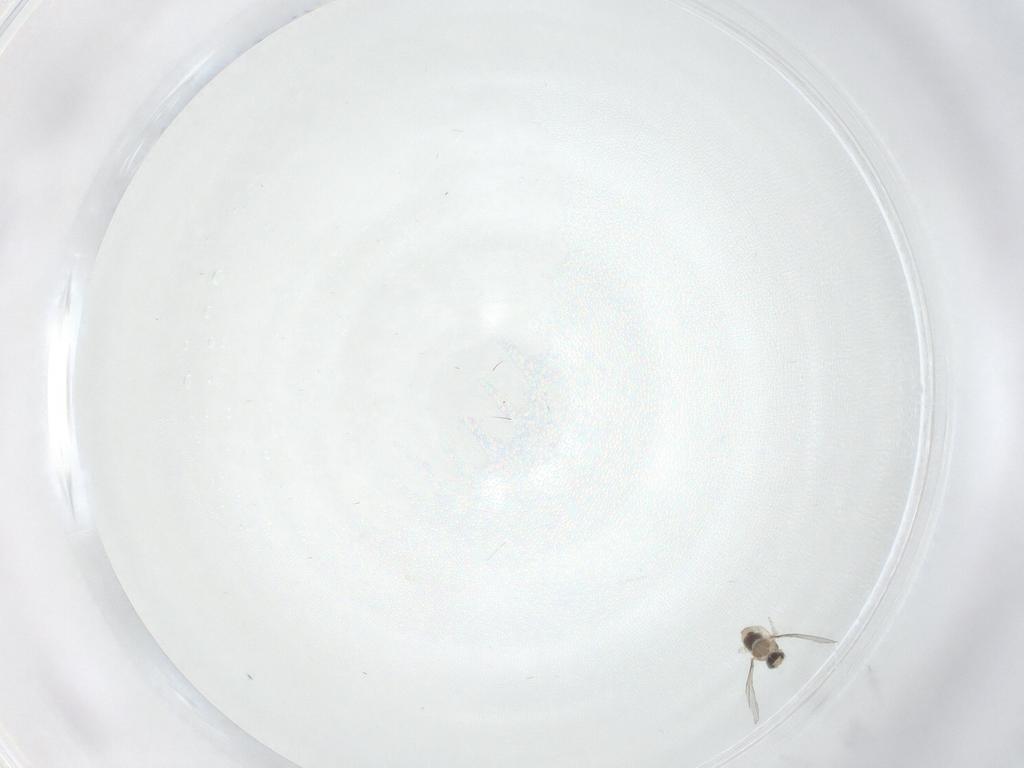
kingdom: Animalia
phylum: Arthropoda
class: Insecta
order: Diptera
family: Cecidomyiidae
